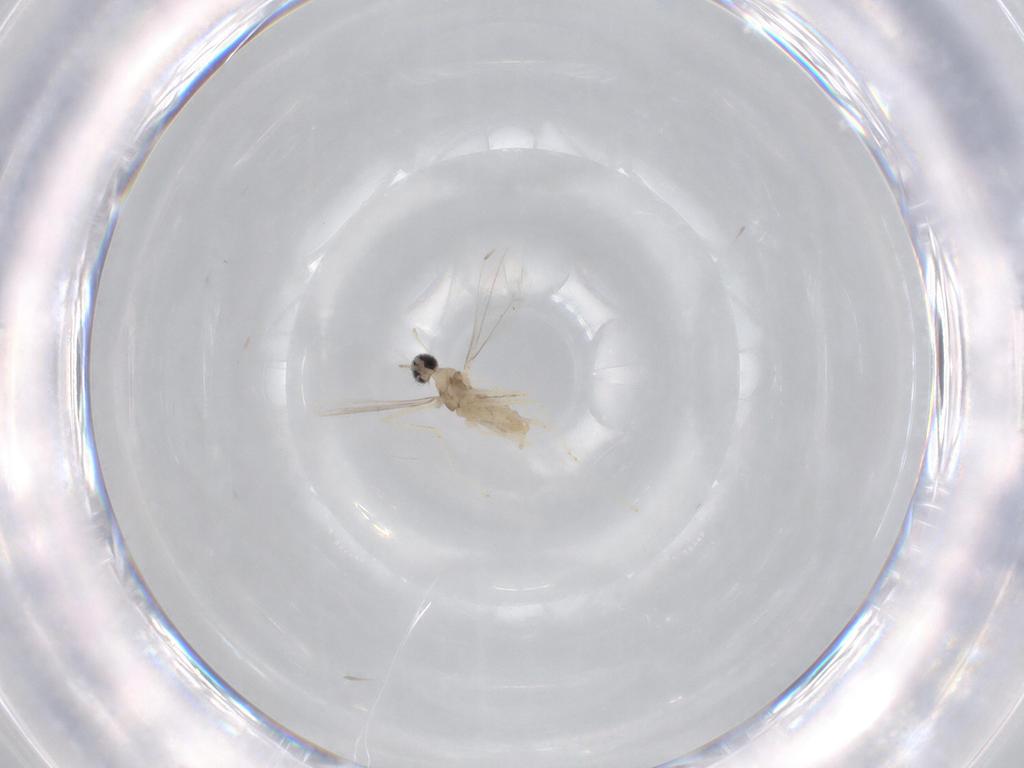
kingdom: Animalia
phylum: Arthropoda
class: Insecta
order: Diptera
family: Cecidomyiidae
